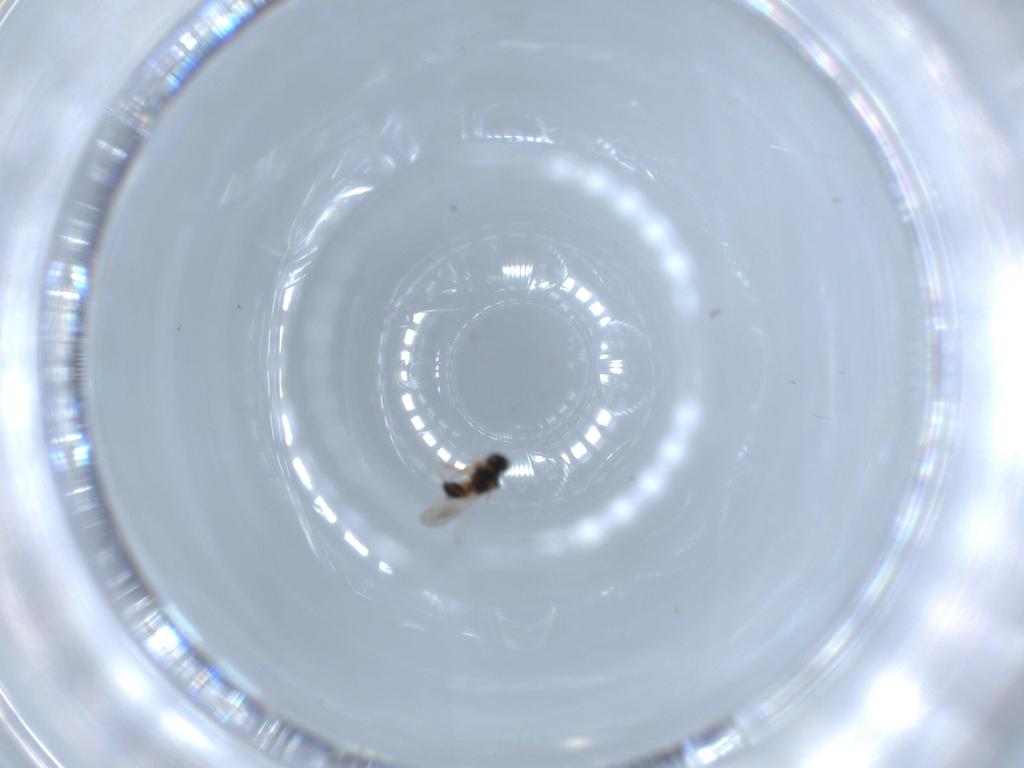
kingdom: Animalia
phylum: Arthropoda
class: Insecta
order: Hymenoptera
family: Platygastridae
